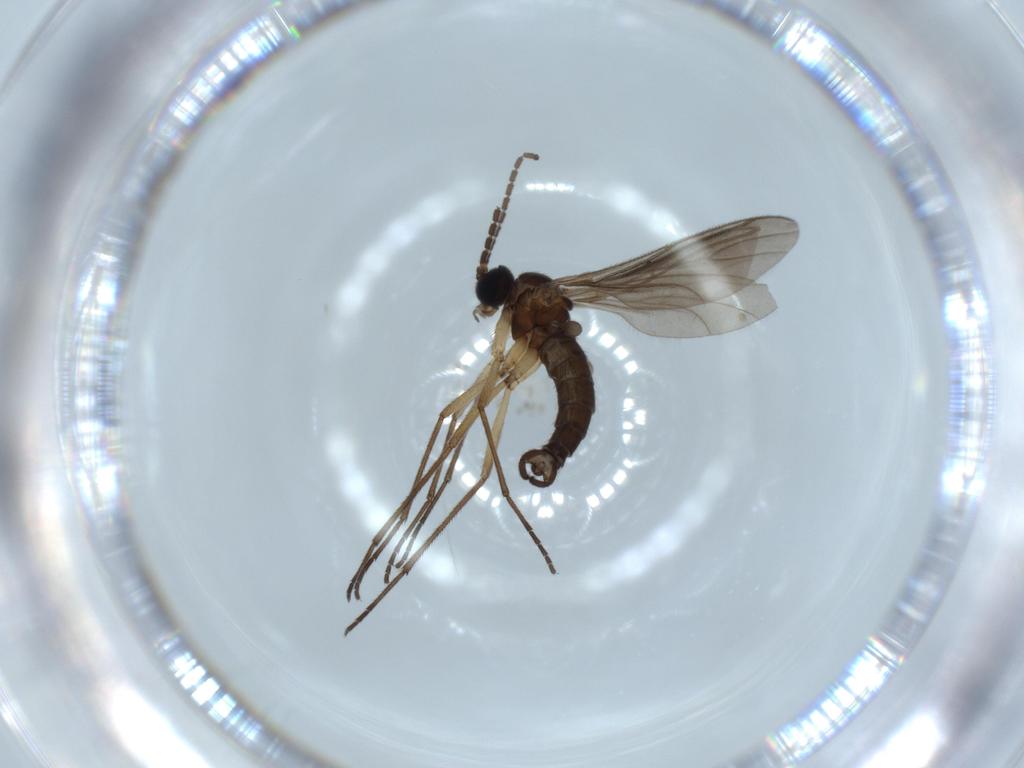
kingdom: Animalia
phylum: Arthropoda
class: Insecta
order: Diptera
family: Sciaridae
